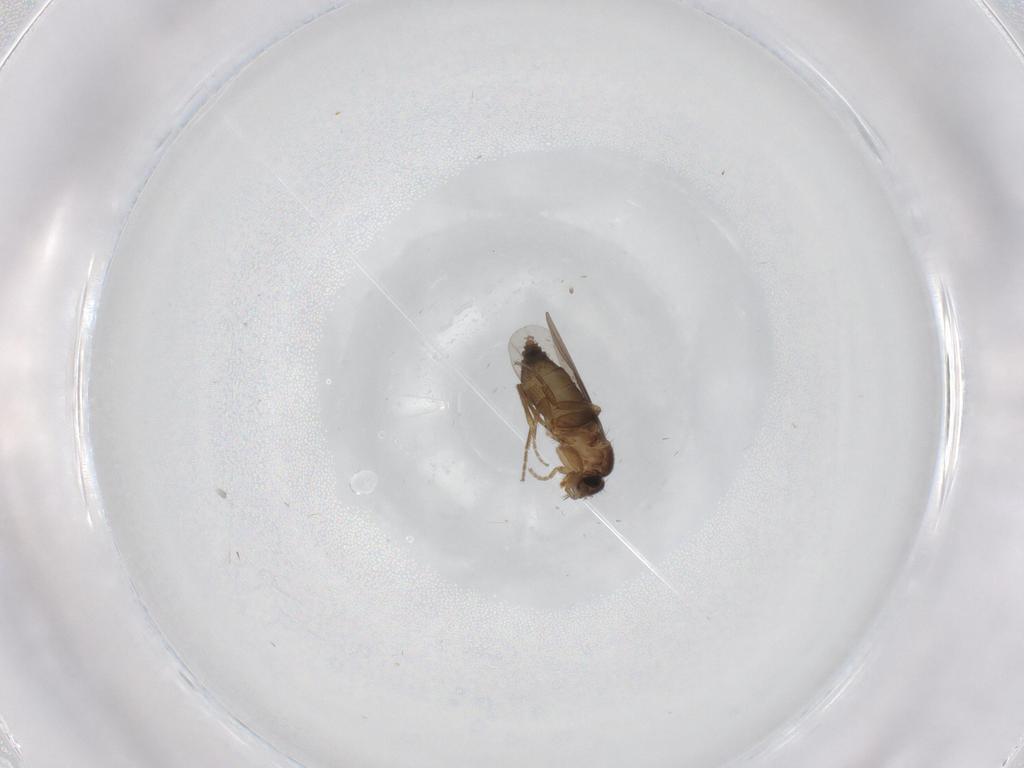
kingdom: Animalia
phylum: Arthropoda
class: Insecta
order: Diptera
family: Phoridae
